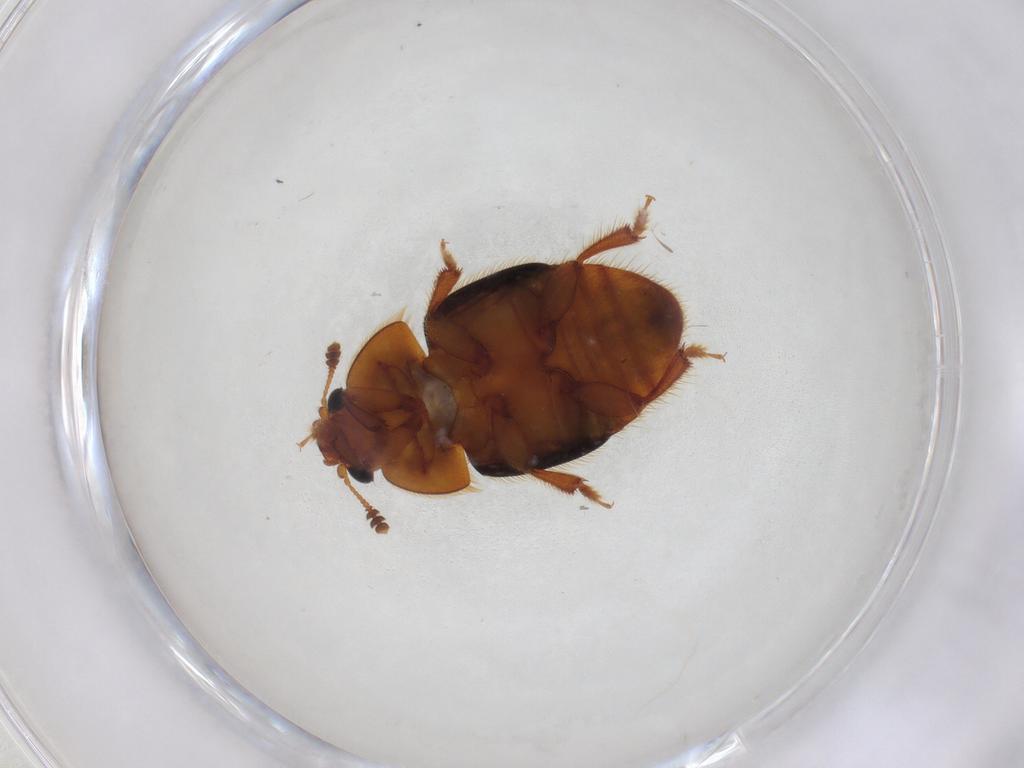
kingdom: Animalia
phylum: Arthropoda
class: Insecta
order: Coleoptera
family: Nitidulidae
